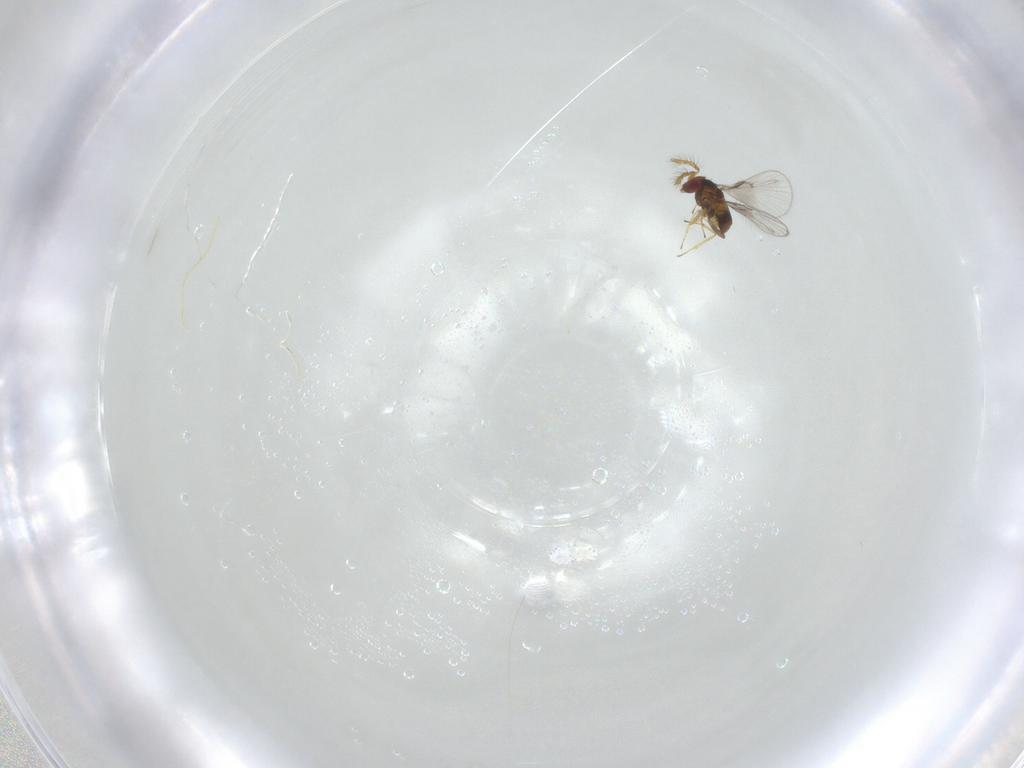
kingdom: Animalia
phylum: Arthropoda
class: Insecta
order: Hymenoptera
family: Trichogrammatidae
